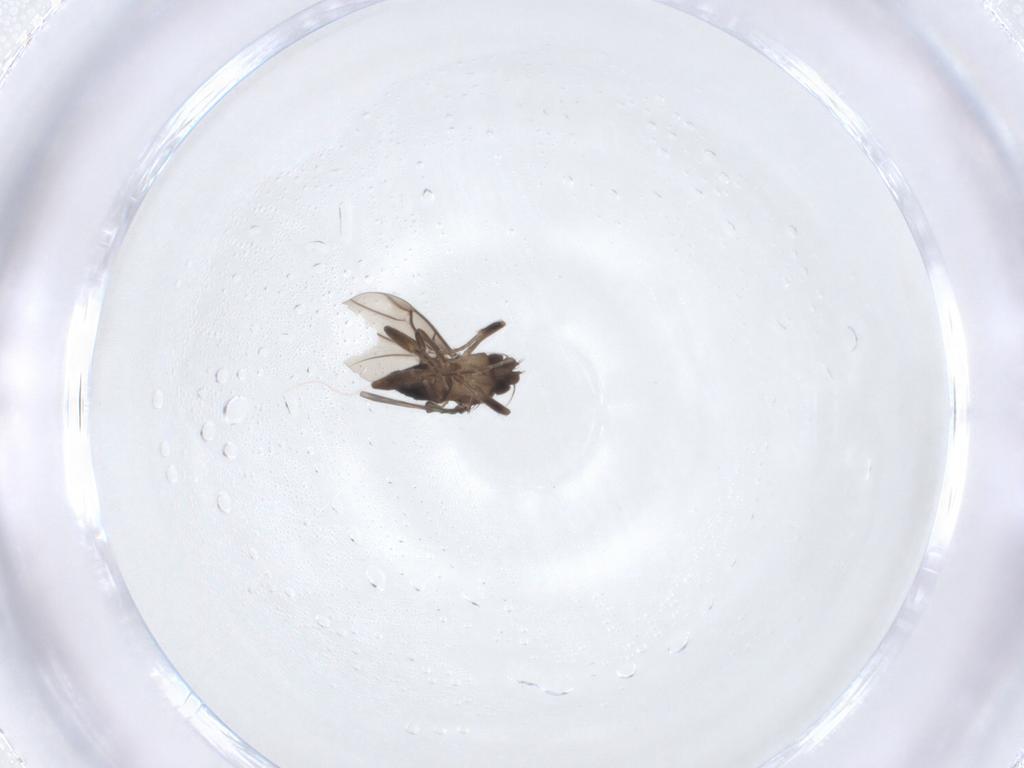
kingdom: Animalia
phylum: Arthropoda
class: Insecta
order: Diptera
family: Phoridae
